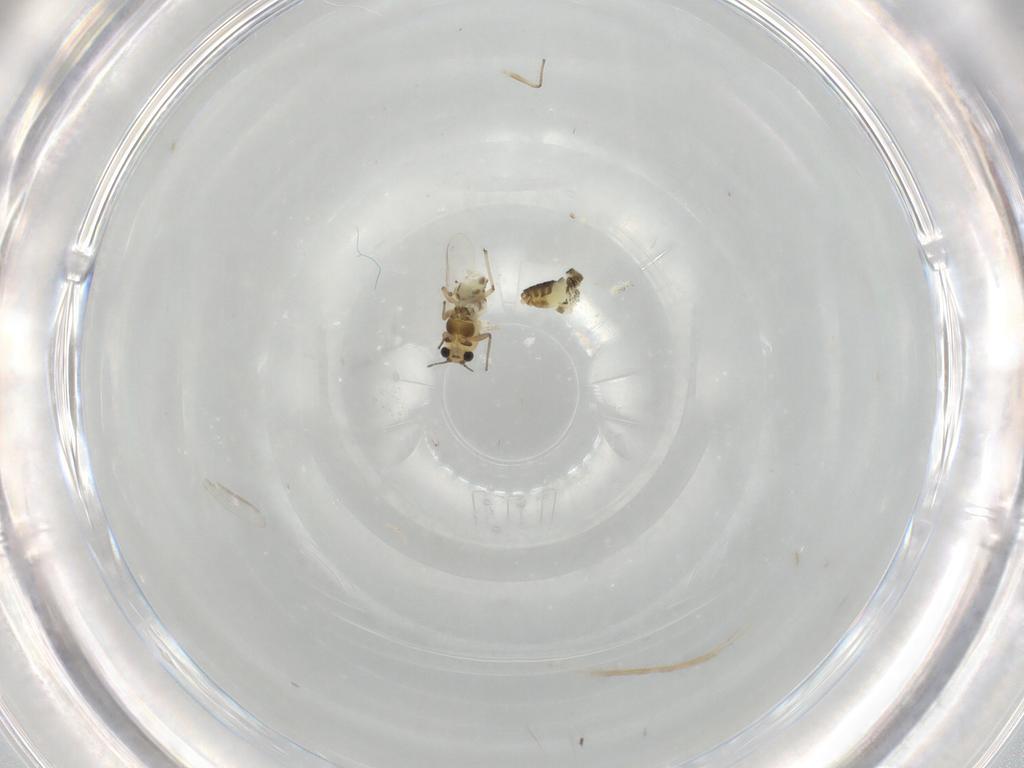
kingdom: Animalia
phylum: Arthropoda
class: Insecta
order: Diptera
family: Chironomidae
